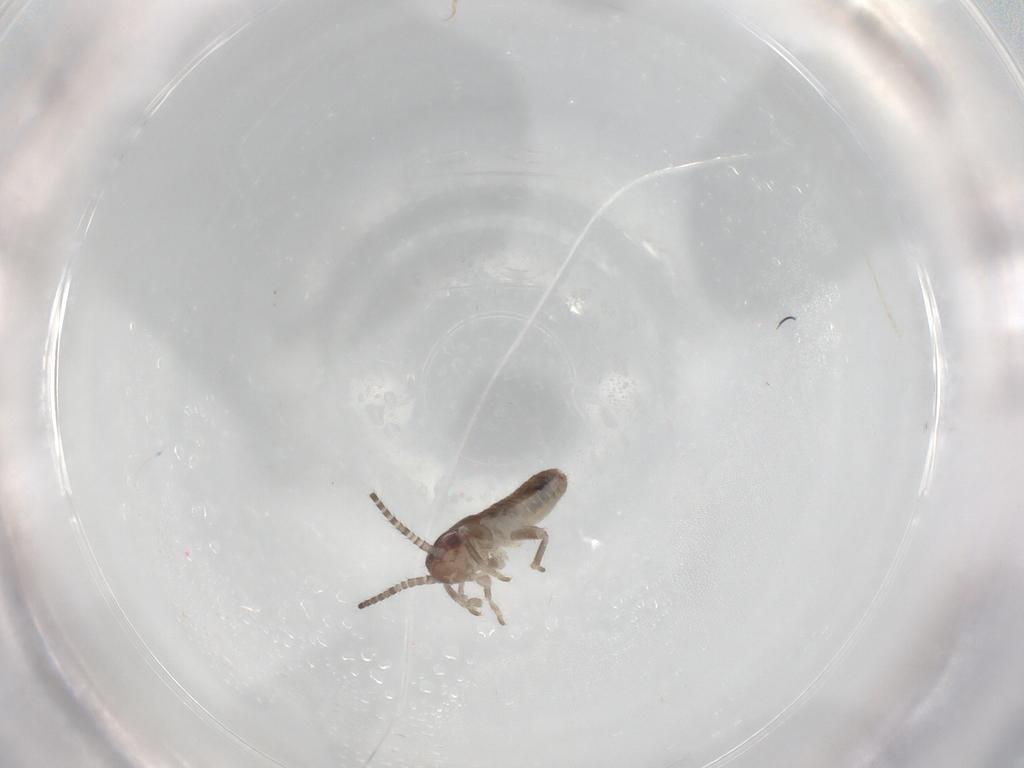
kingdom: Animalia
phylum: Arthropoda
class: Insecta
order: Orthoptera
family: Mogoplistidae
